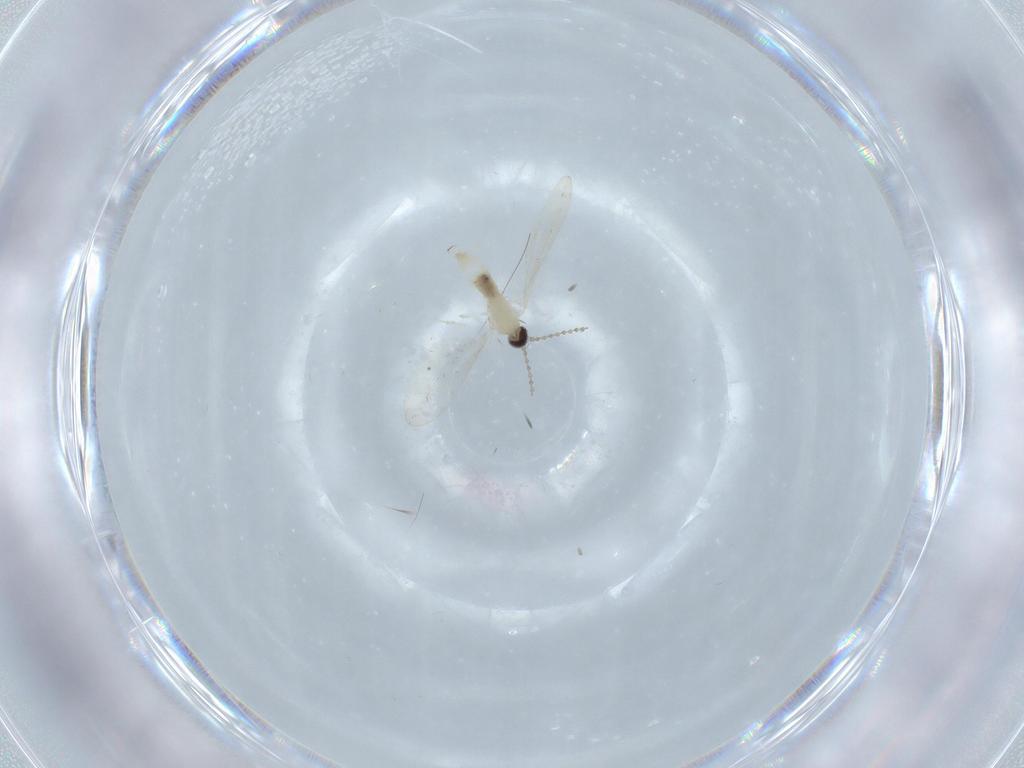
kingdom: Animalia
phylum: Arthropoda
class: Insecta
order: Diptera
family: Cecidomyiidae
